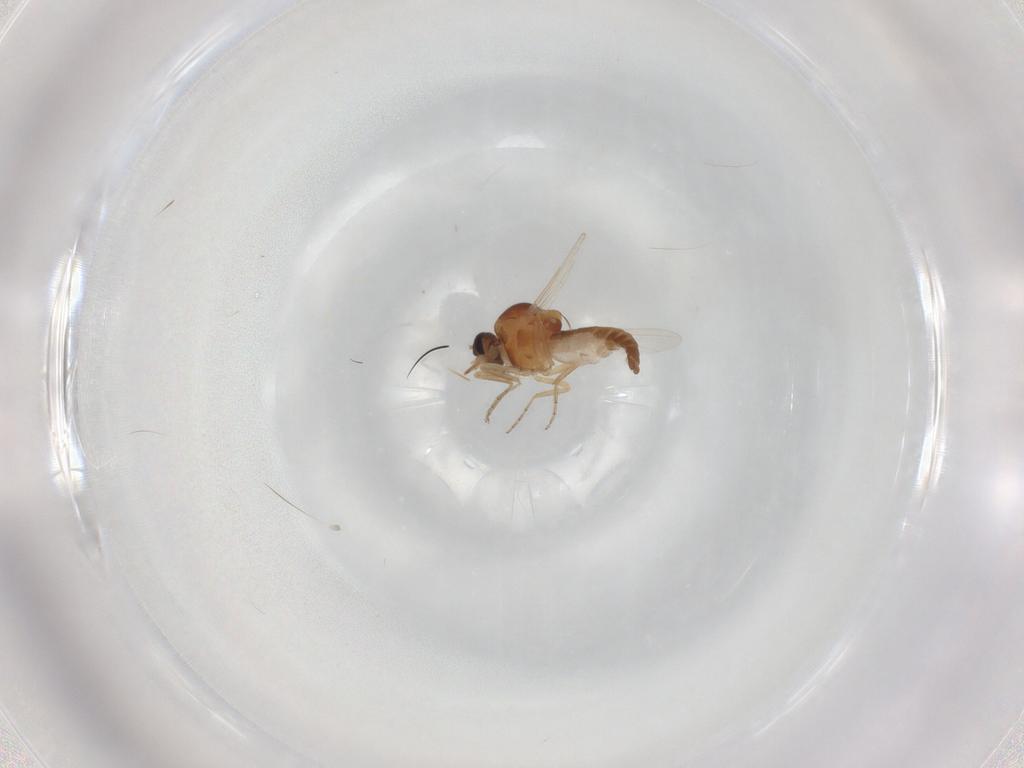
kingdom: Animalia
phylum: Arthropoda
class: Insecta
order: Diptera
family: Ceratopogonidae
